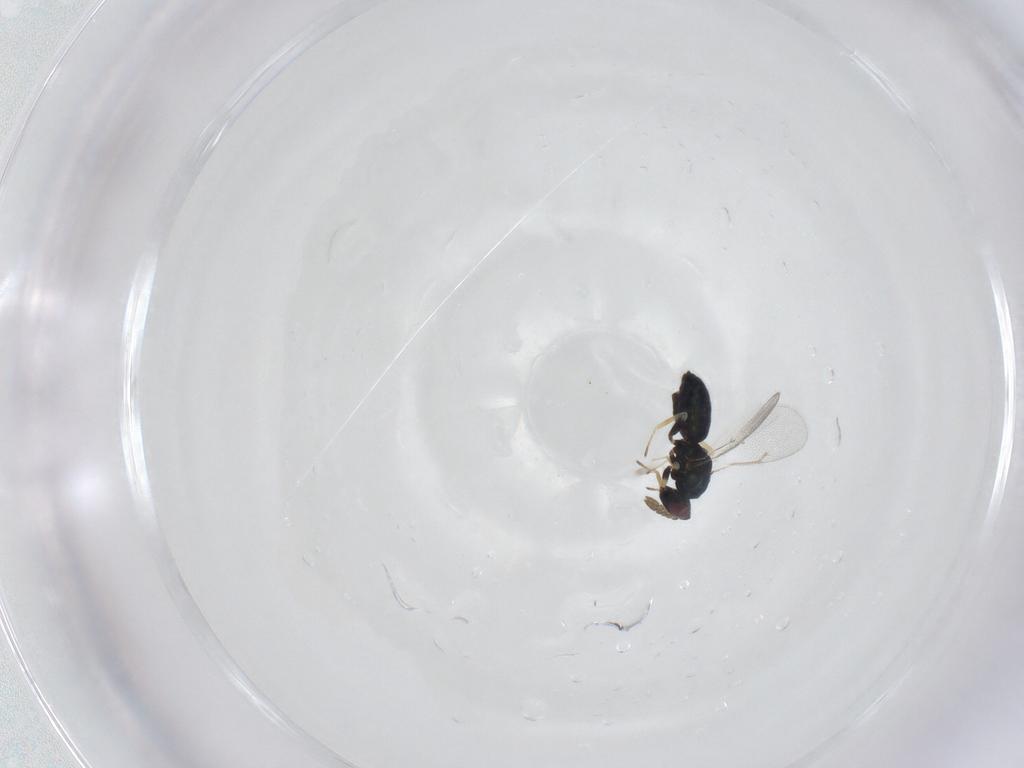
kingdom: Animalia
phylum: Arthropoda
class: Insecta
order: Hymenoptera
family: Eulophidae
